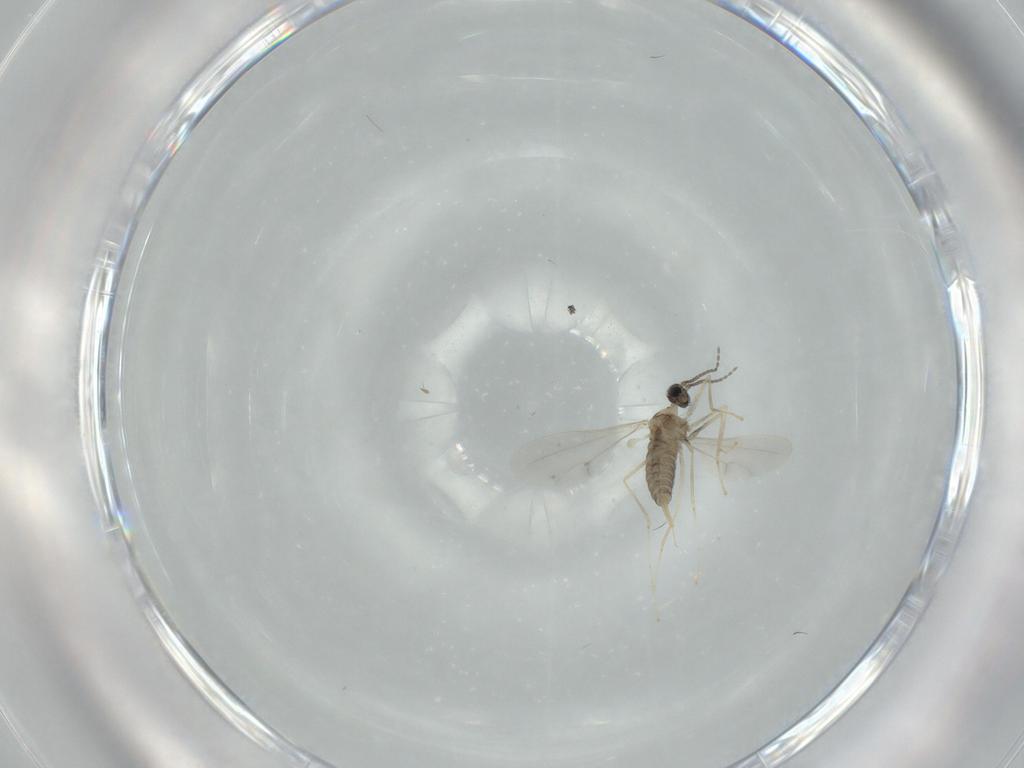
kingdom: Animalia
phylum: Arthropoda
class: Insecta
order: Diptera
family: Cecidomyiidae
